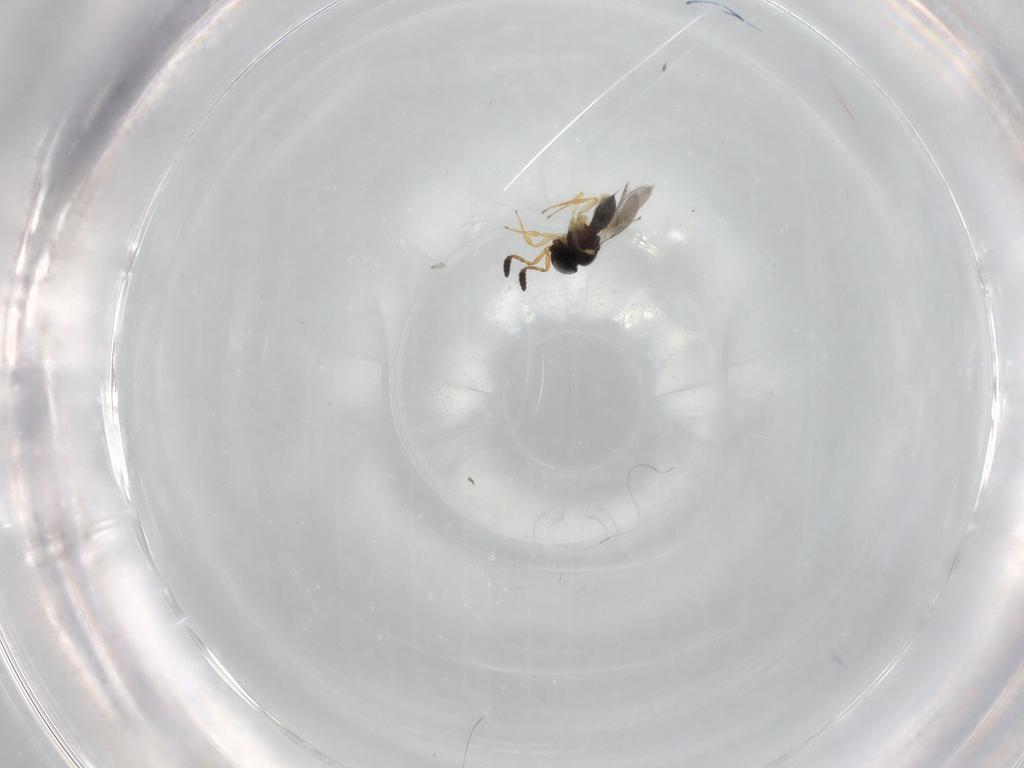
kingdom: Animalia
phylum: Arthropoda
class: Insecta
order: Hymenoptera
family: Scelionidae
